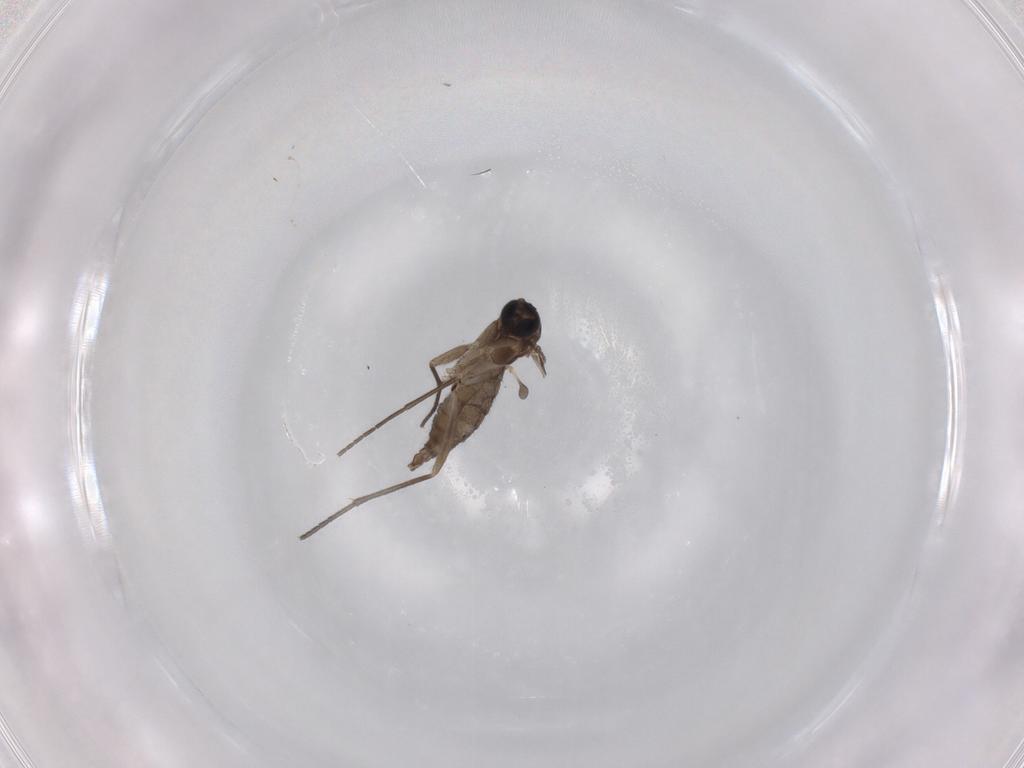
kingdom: Animalia
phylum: Arthropoda
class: Insecta
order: Diptera
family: Sciaridae
